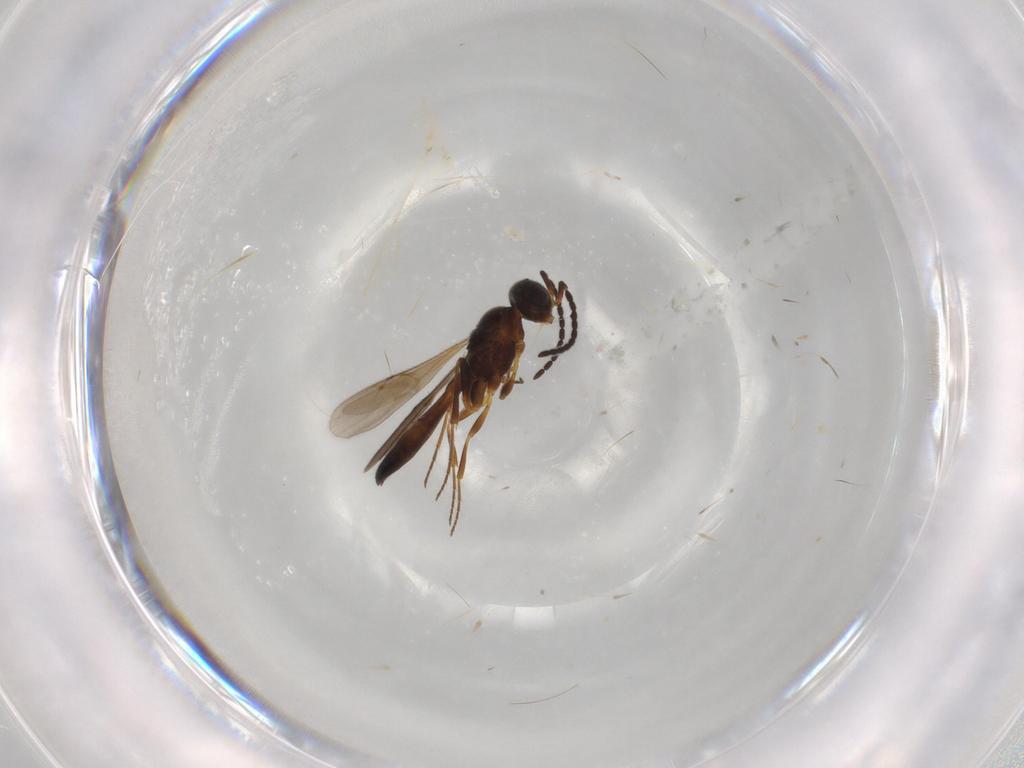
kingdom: Animalia
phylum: Arthropoda
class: Insecta
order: Hymenoptera
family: Scelionidae
